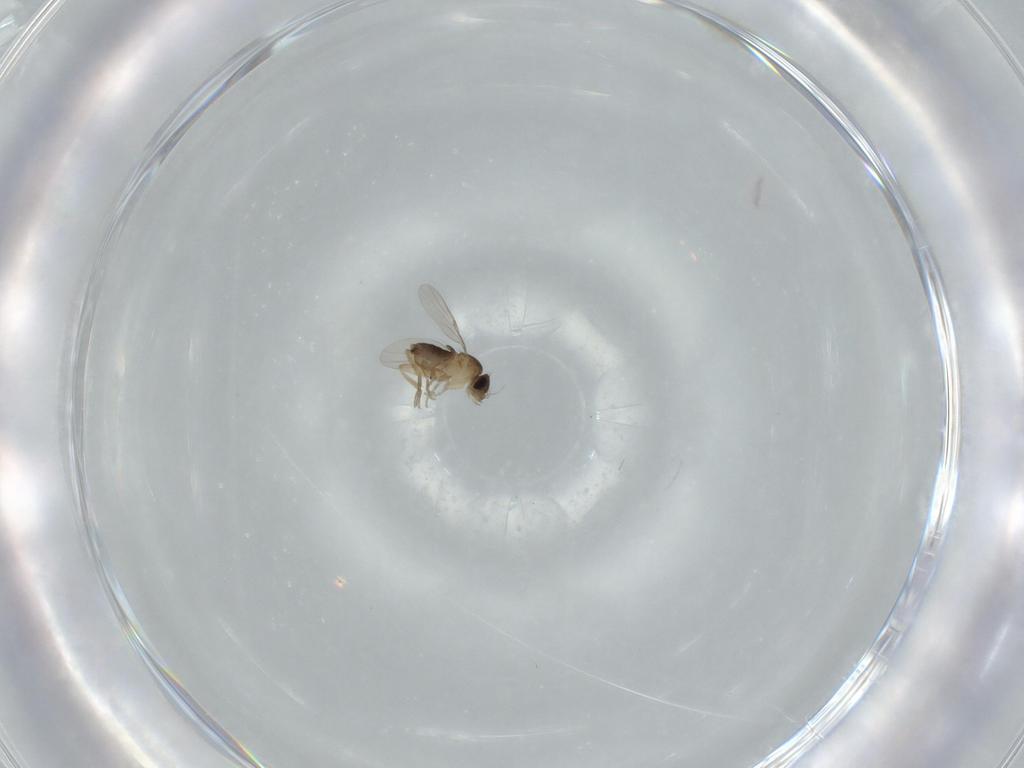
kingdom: Animalia
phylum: Arthropoda
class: Insecta
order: Diptera
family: Phoridae
